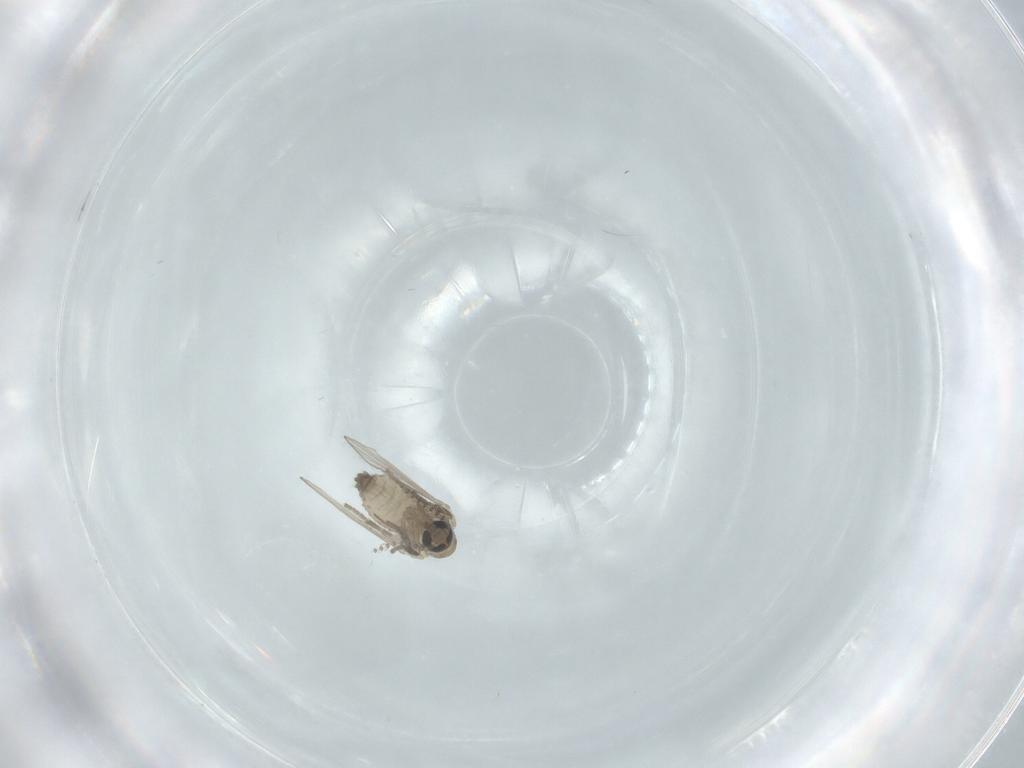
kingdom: Animalia
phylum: Arthropoda
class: Insecta
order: Diptera
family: Psychodidae
